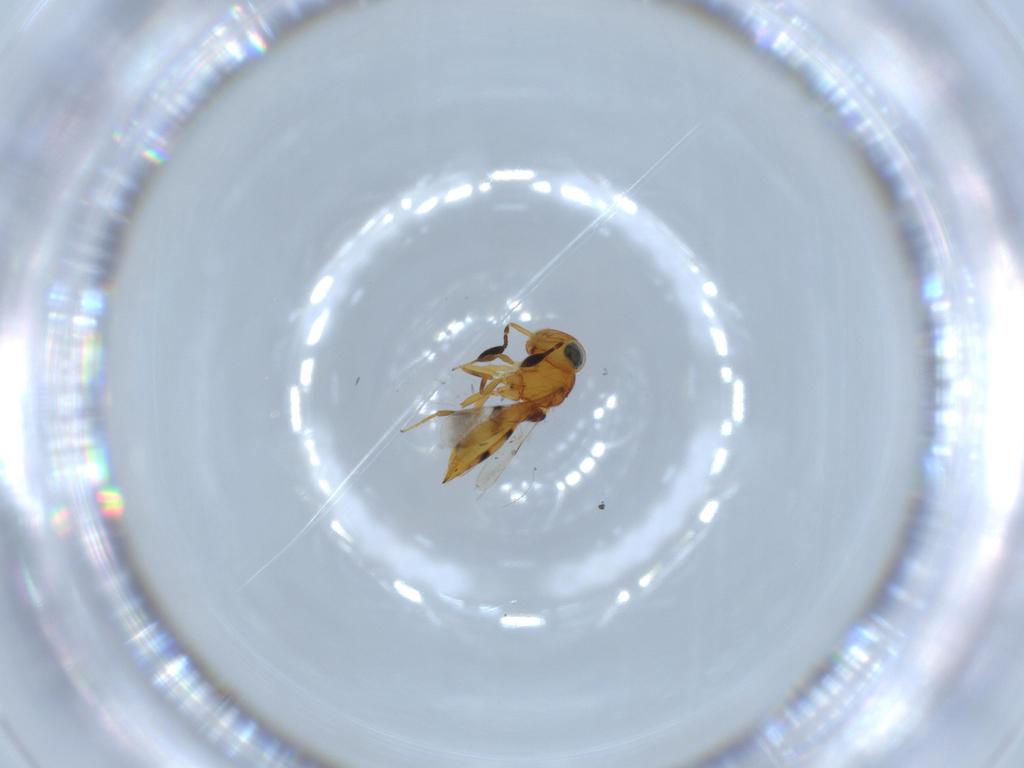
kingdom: Animalia
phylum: Arthropoda
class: Insecta
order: Hymenoptera
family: Scelionidae
